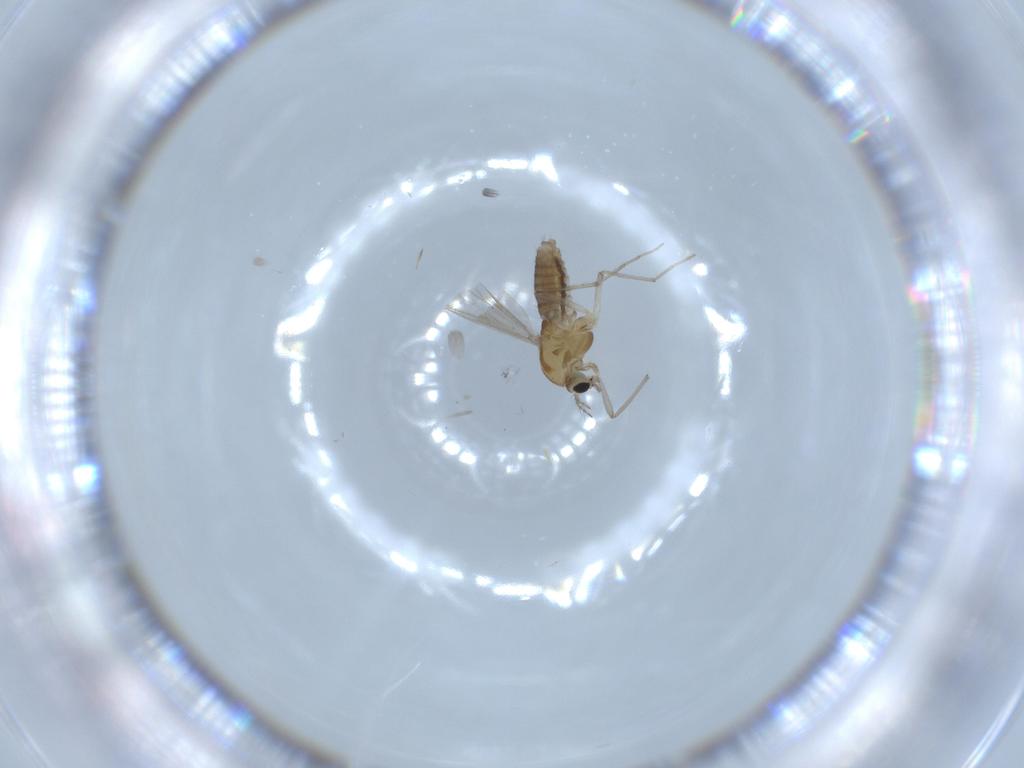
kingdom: Animalia
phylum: Arthropoda
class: Insecta
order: Diptera
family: Chironomidae
